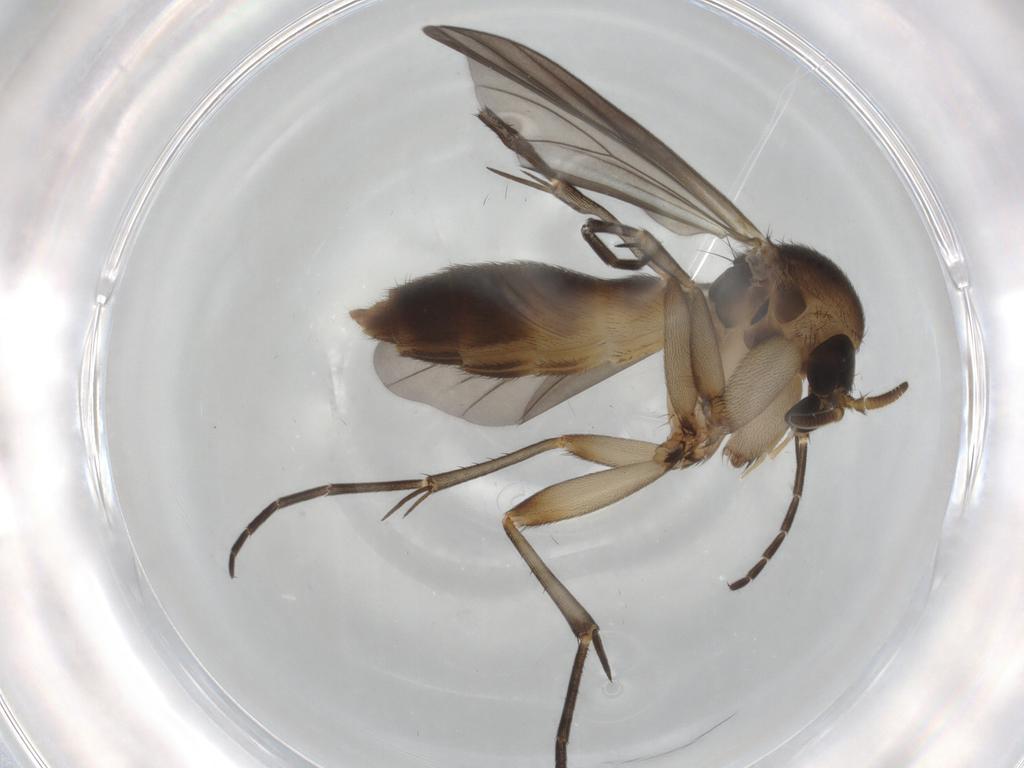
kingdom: Animalia
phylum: Arthropoda
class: Insecta
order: Diptera
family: Mycetophilidae
